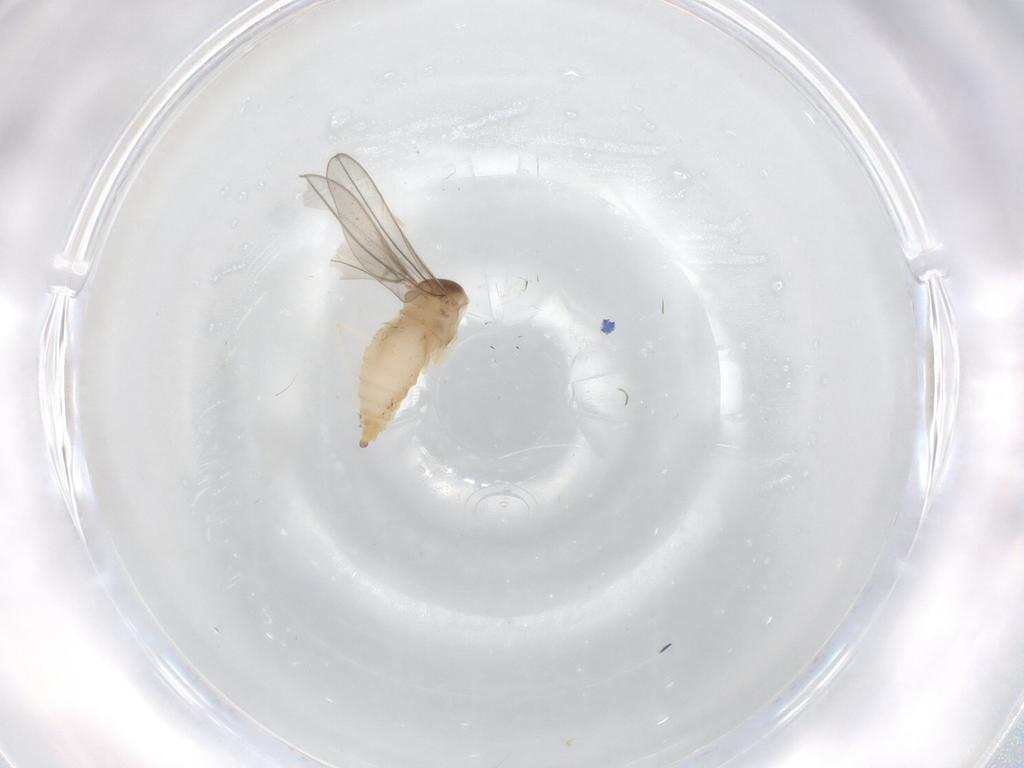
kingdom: Animalia
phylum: Arthropoda
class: Insecta
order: Diptera
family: Cecidomyiidae
